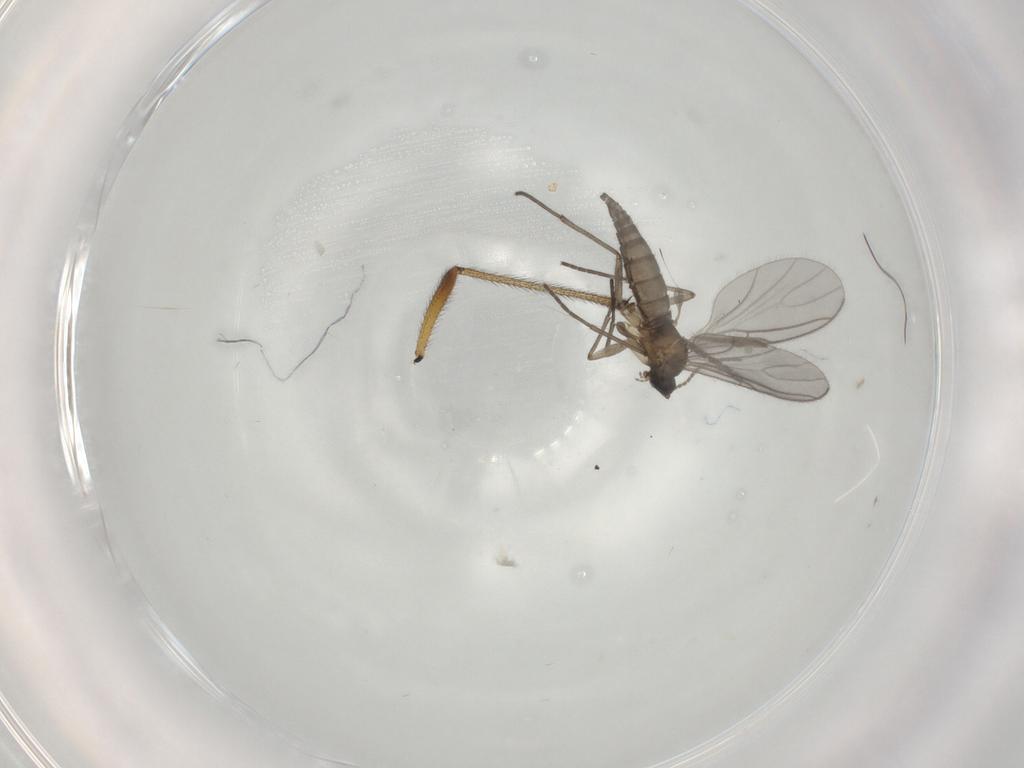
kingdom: Animalia
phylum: Arthropoda
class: Insecta
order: Diptera
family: Sciaridae
